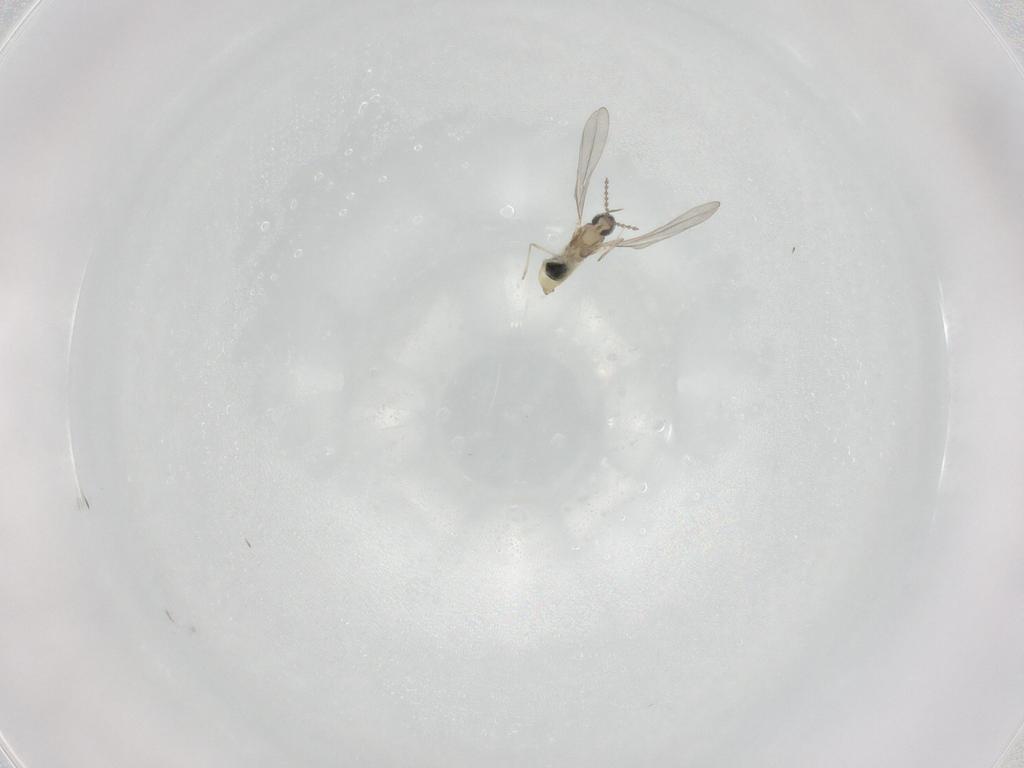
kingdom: Animalia
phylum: Arthropoda
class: Insecta
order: Diptera
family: Cecidomyiidae
